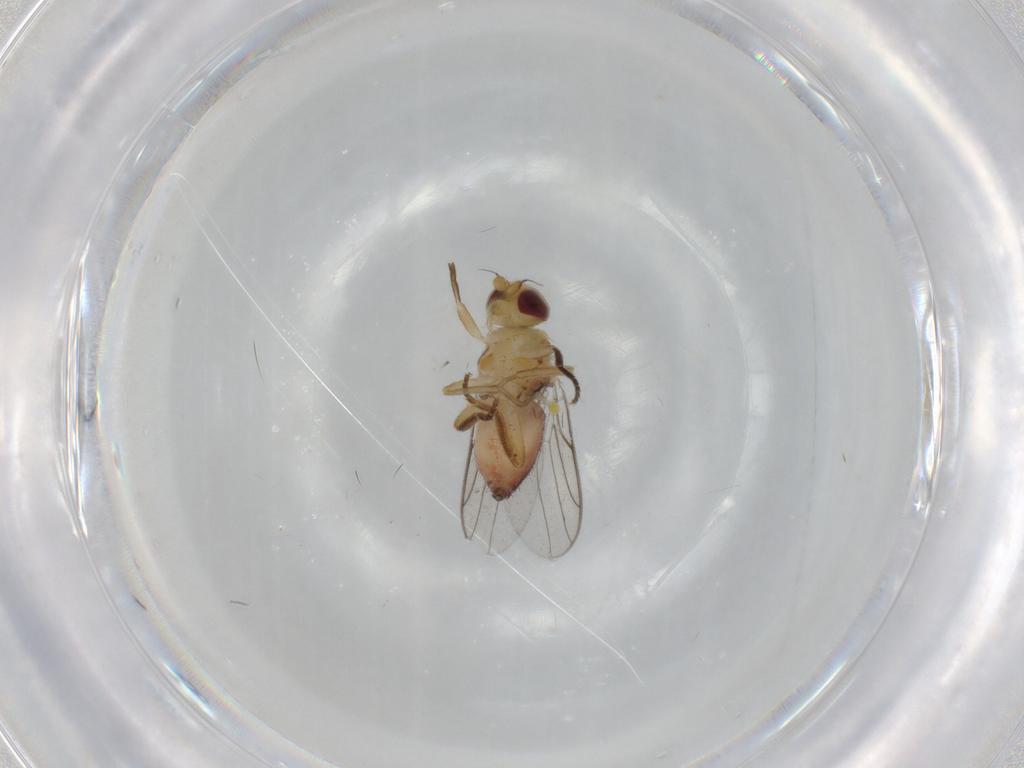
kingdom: Animalia
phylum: Arthropoda
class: Insecta
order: Diptera
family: Chloropidae
